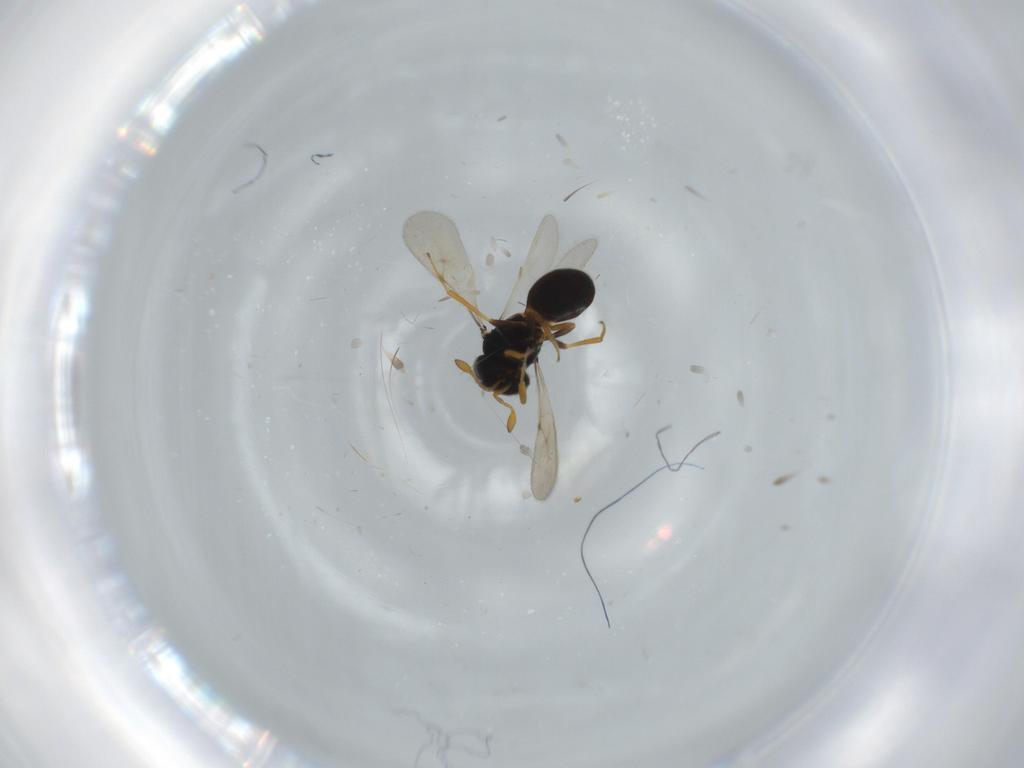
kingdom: Animalia
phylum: Arthropoda
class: Insecta
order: Hymenoptera
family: Scelionidae
